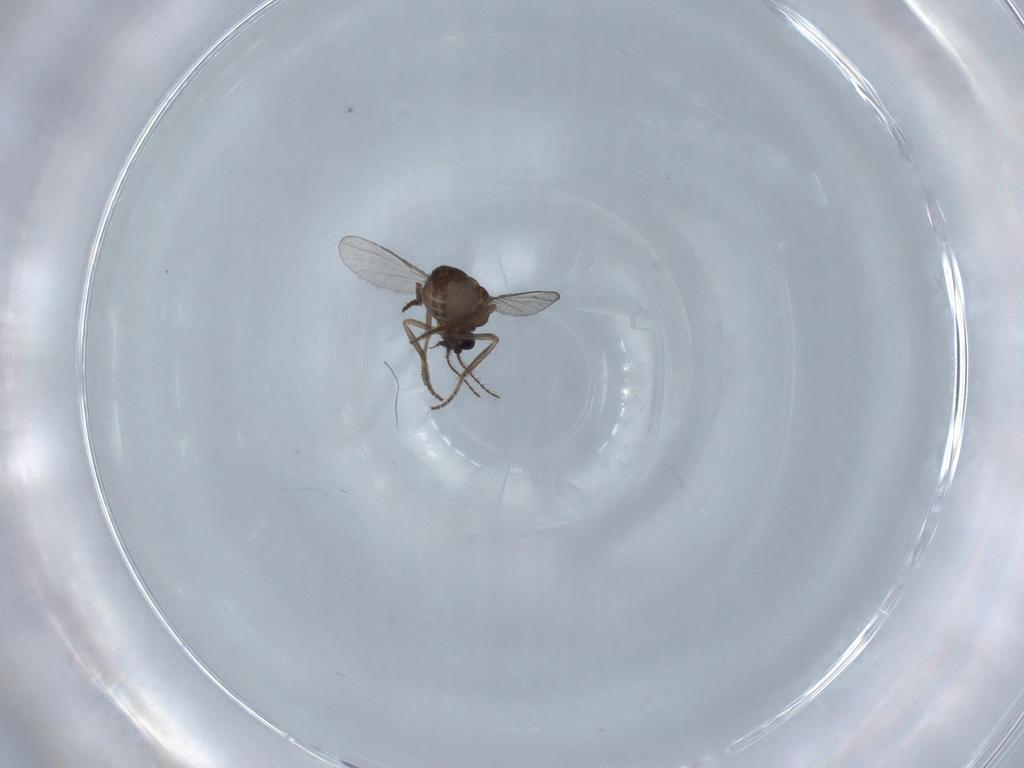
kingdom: Animalia
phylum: Arthropoda
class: Insecta
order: Diptera
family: Ceratopogonidae
